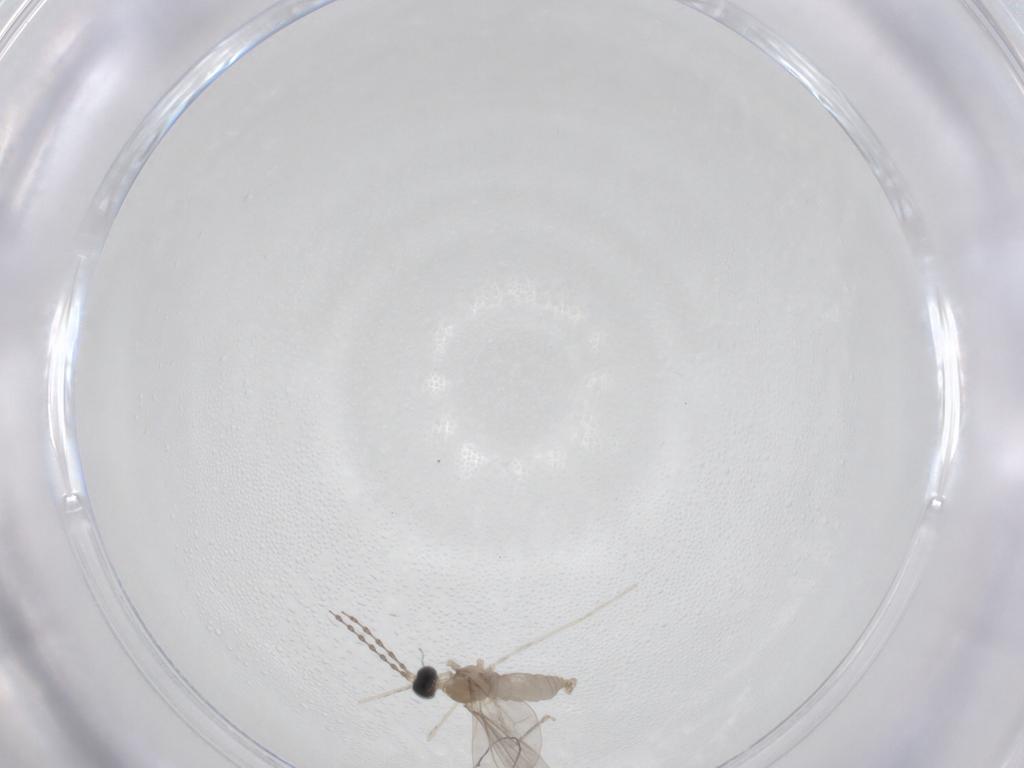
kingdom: Animalia
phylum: Arthropoda
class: Insecta
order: Diptera
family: Cecidomyiidae
